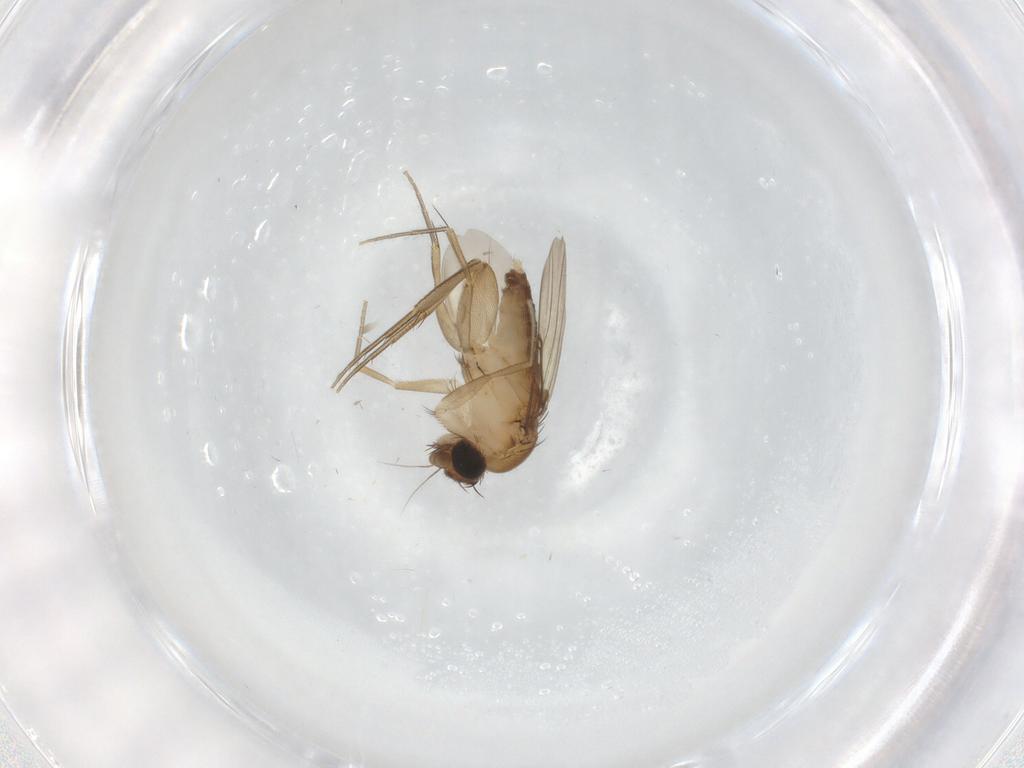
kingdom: Animalia
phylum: Arthropoda
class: Insecta
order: Diptera
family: Phoridae
